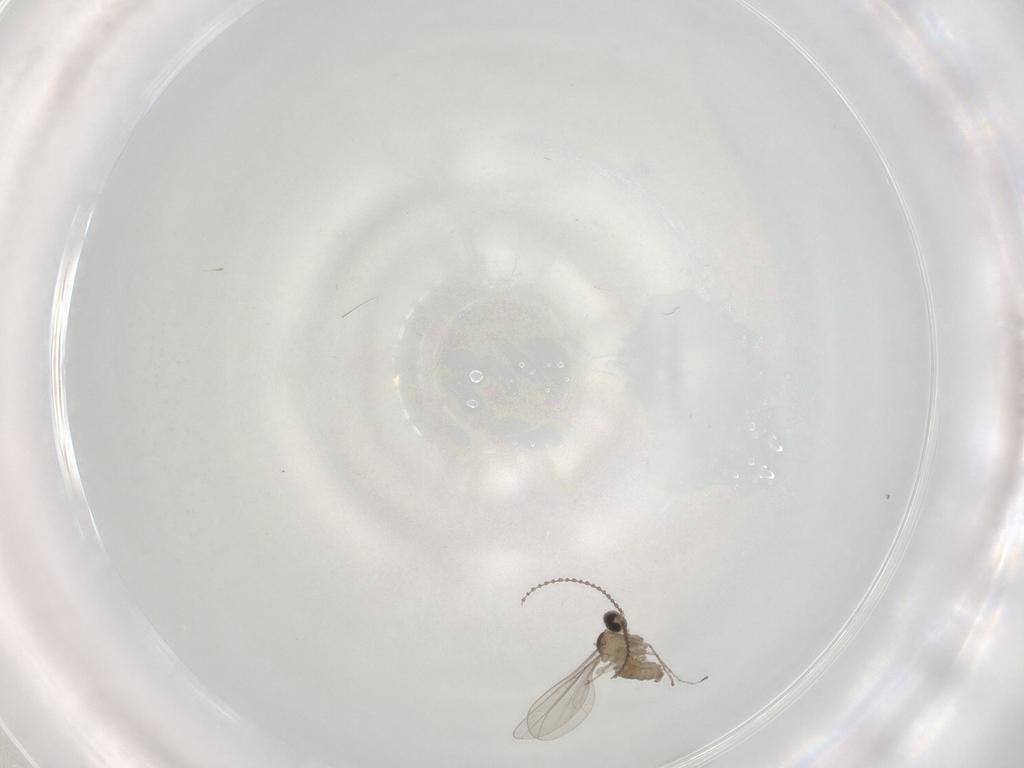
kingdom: Animalia
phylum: Arthropoda
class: Insecta
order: Diptera
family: Cecidomyiidae
